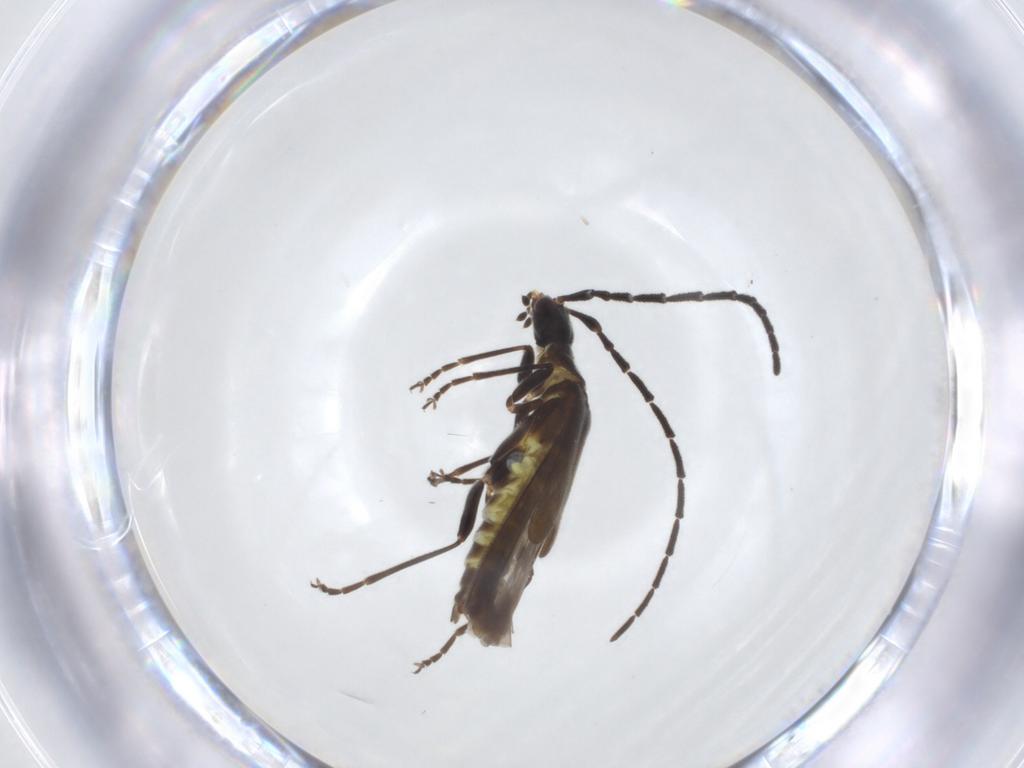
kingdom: Animalia
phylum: Arthropoda
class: Insecta
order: Coleoptera
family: Cantharidae
